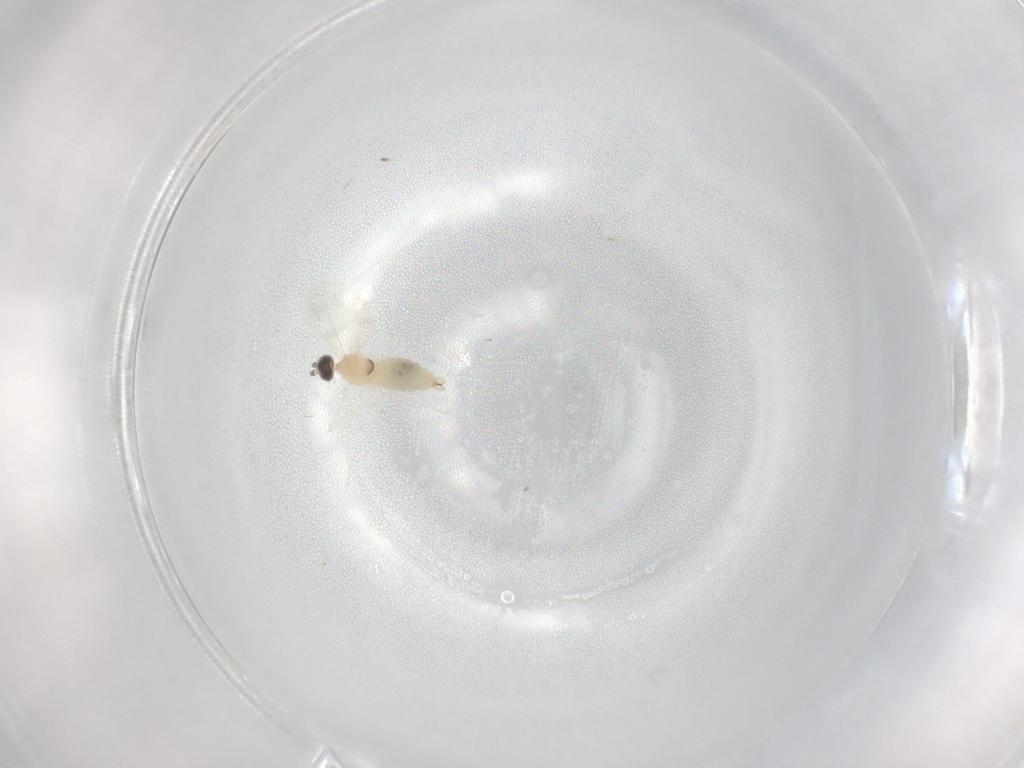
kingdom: Animalia
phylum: Arthropoda
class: Insecta
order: Diptera
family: Cecidomyiidae
